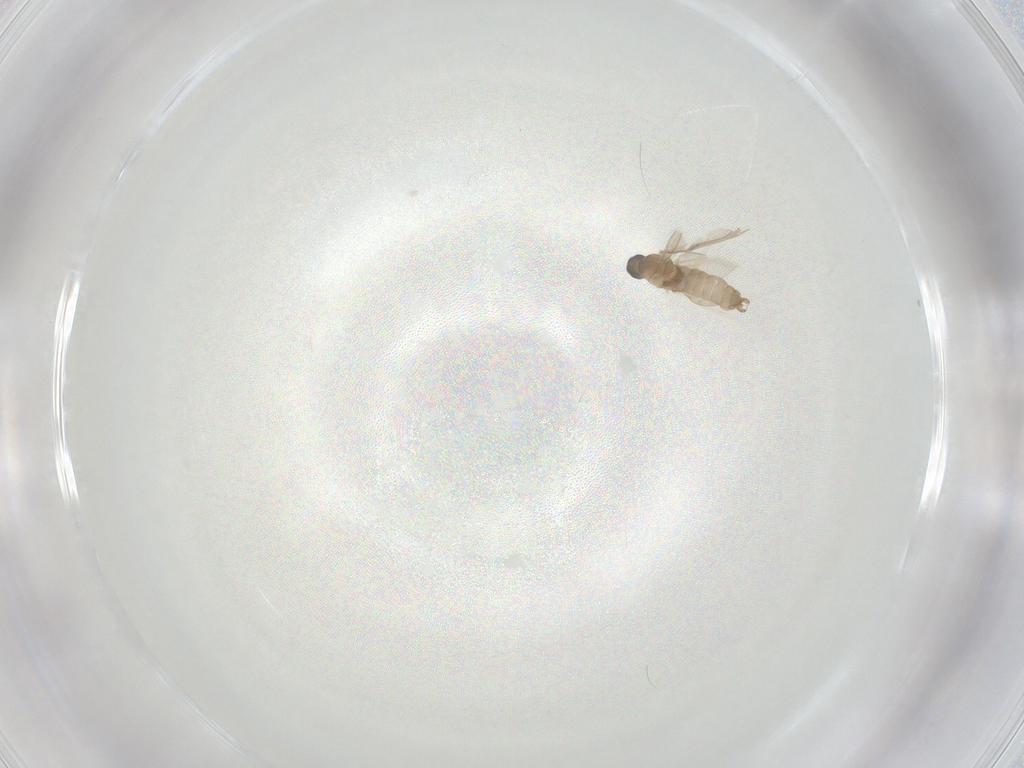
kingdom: Animalia
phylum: Arthropoda
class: Insecta
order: Diptera
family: Cecidomyiidae
